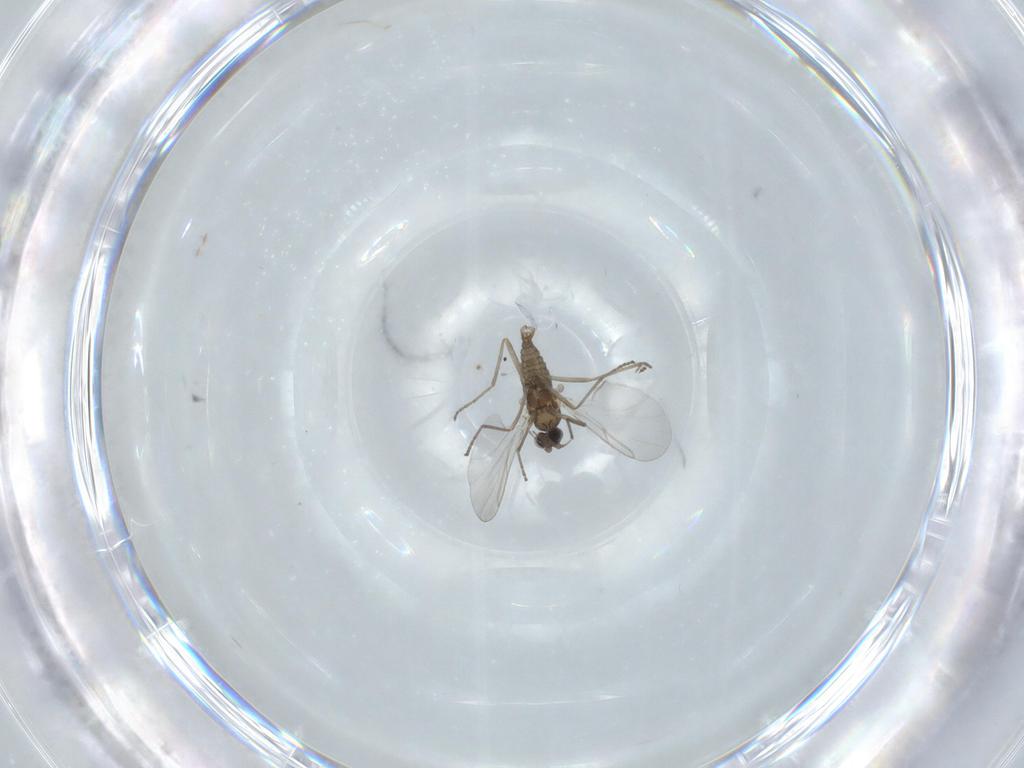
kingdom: Animalia
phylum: Arthropoda
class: Insecta
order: Diptera
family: Cecidomyiidae
